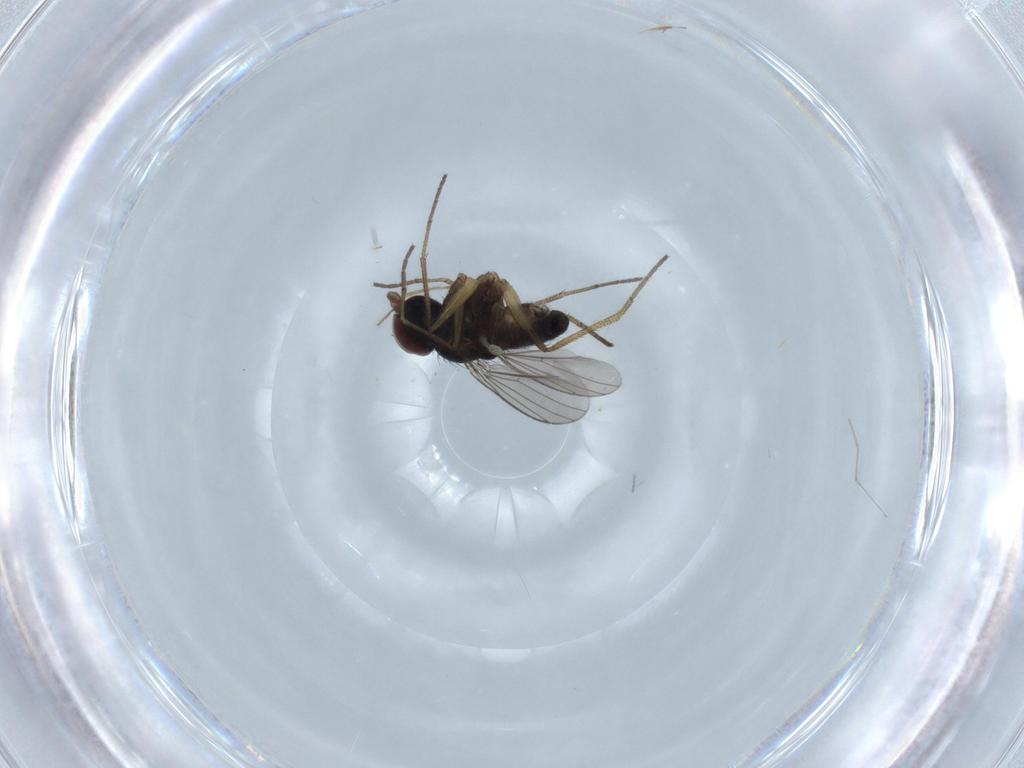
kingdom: Animalia
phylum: Arthropoda
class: Insecta
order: Diptera
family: Dolichopodidae
